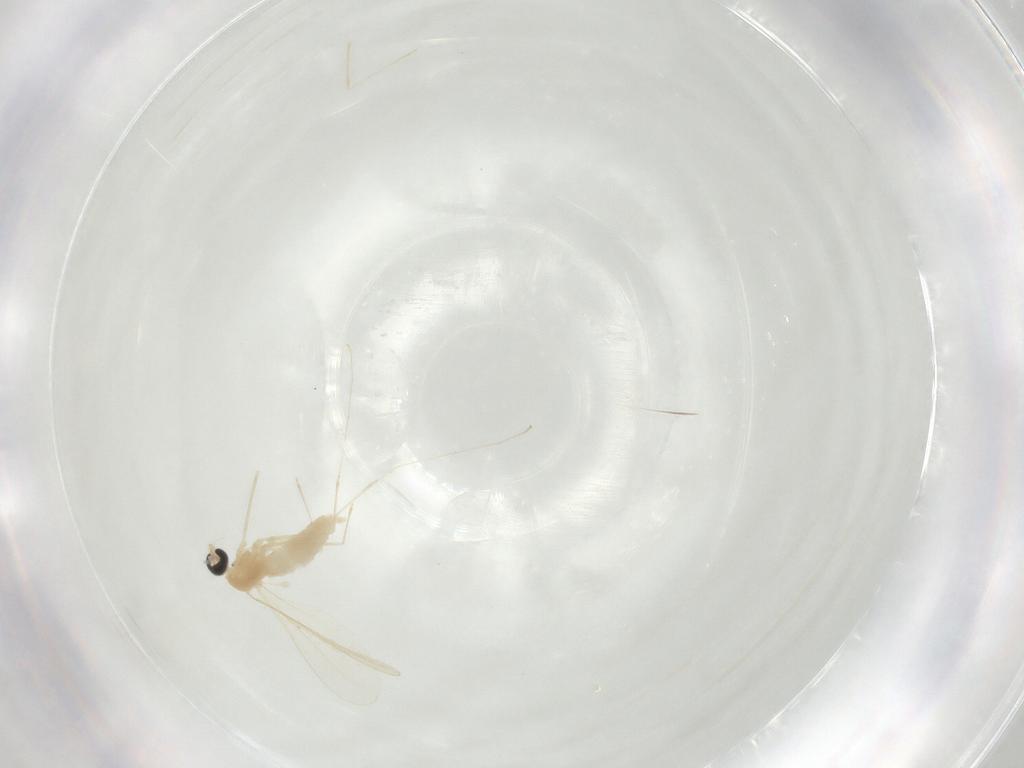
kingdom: Animalia
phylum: Arthropoda
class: Insecta
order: Diptera
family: Cecidomyiidae
